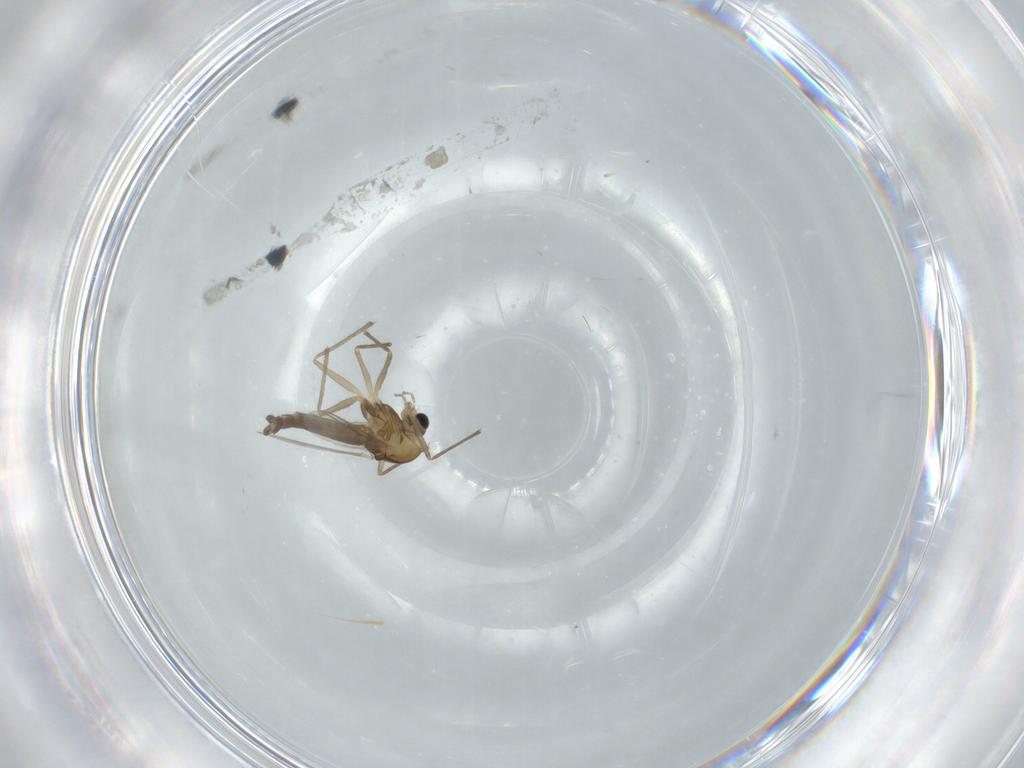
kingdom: Animalia
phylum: Arthropoda
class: Insecta
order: Diptera
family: Chironomidae
